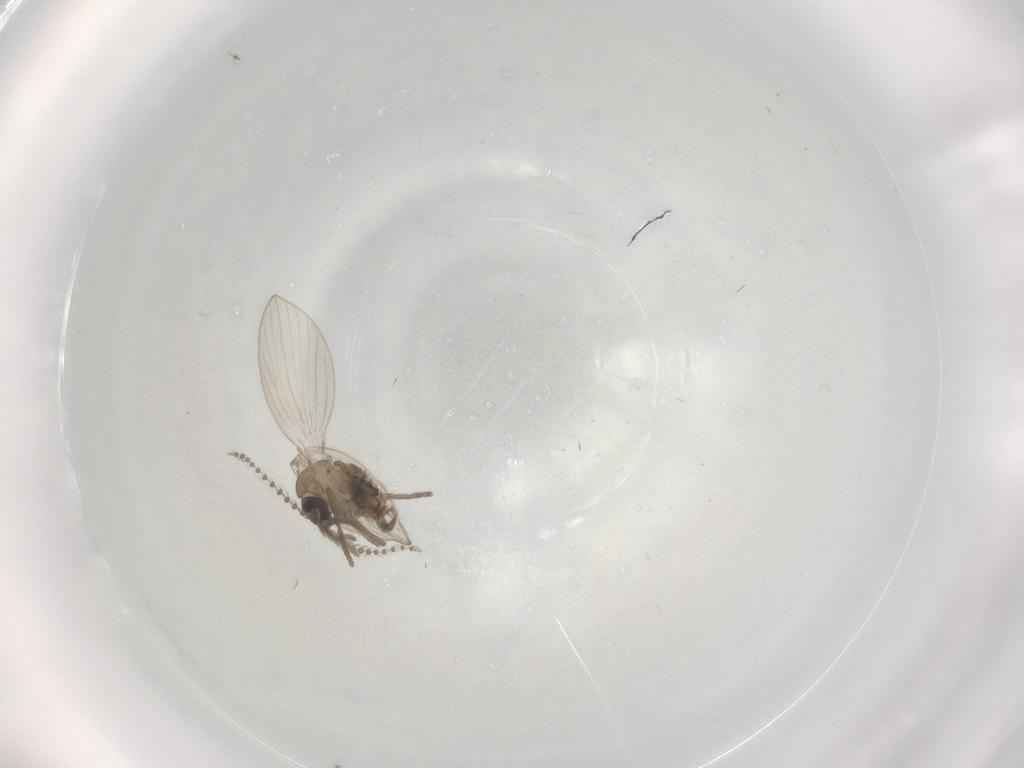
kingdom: Animalia
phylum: Arthropoda
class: Insecta
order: Diptera
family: Psychodidae
